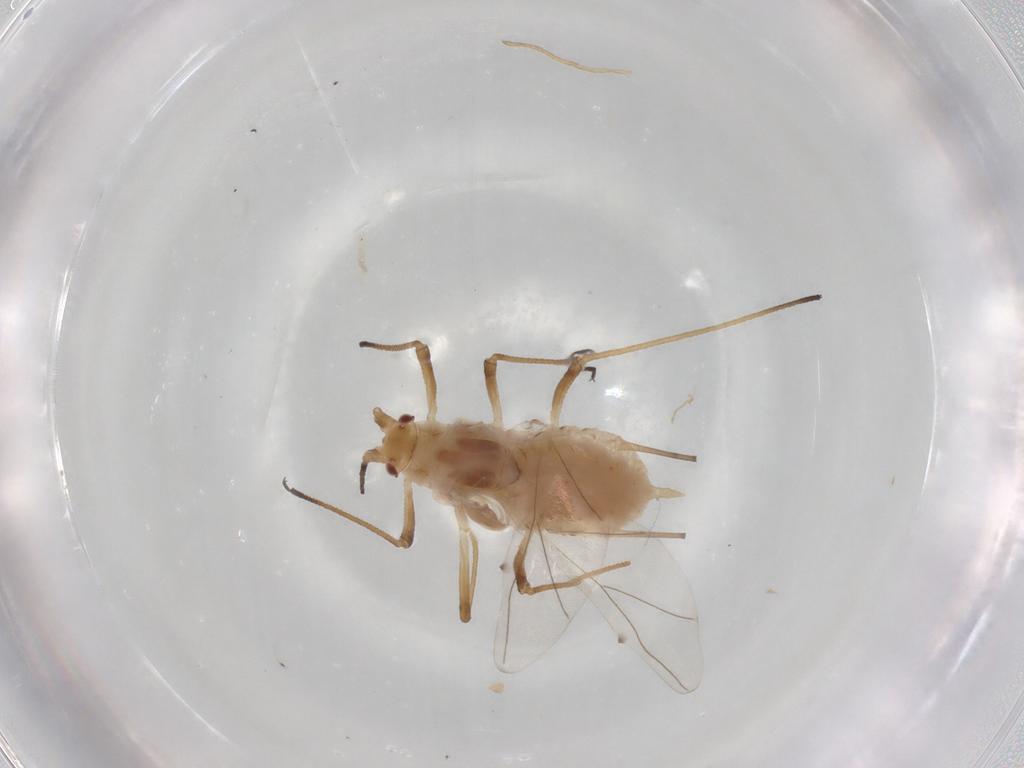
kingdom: Animalia
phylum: Arthropoda
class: Insecta
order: Hemiptera
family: Aphididae
